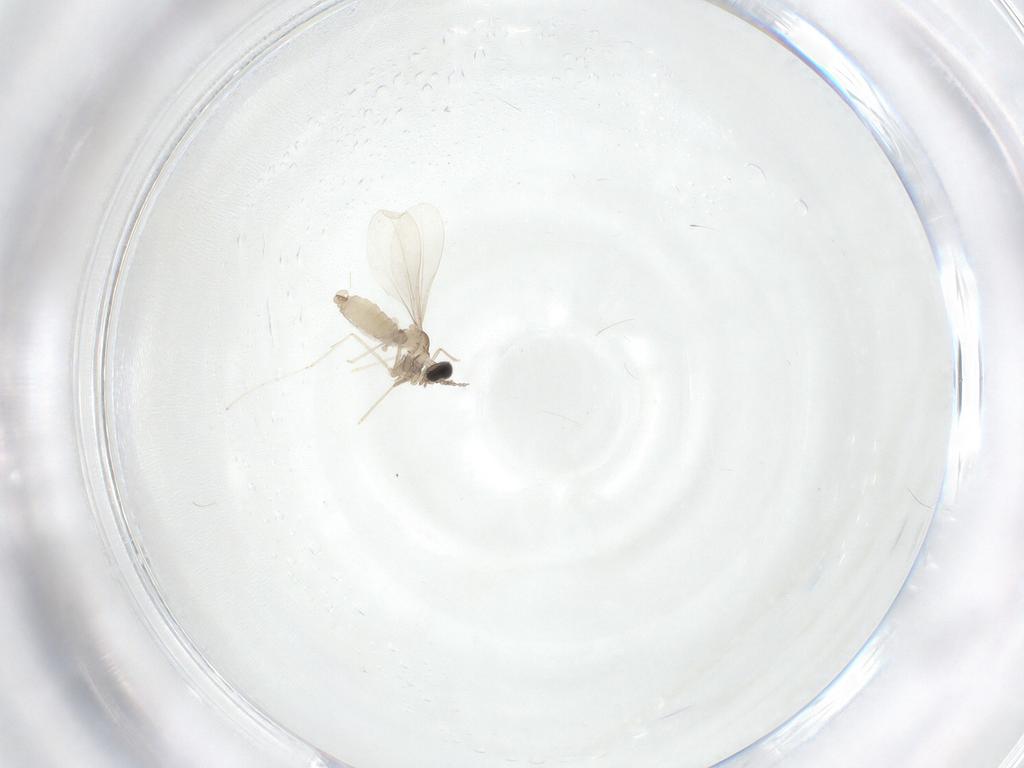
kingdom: Animalia
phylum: Arthropoda
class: Insecta
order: Diptera
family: Cecidomyiidae
